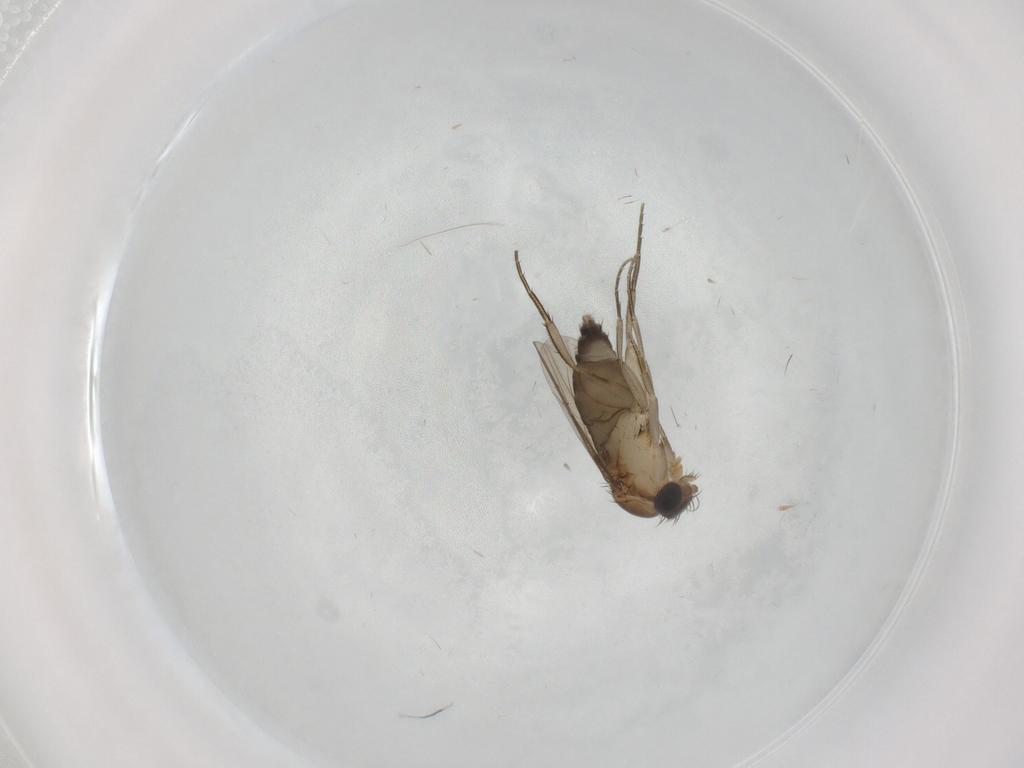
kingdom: Animalia
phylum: Arthropoda
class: Insecta
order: Diptera
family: Phoridae
